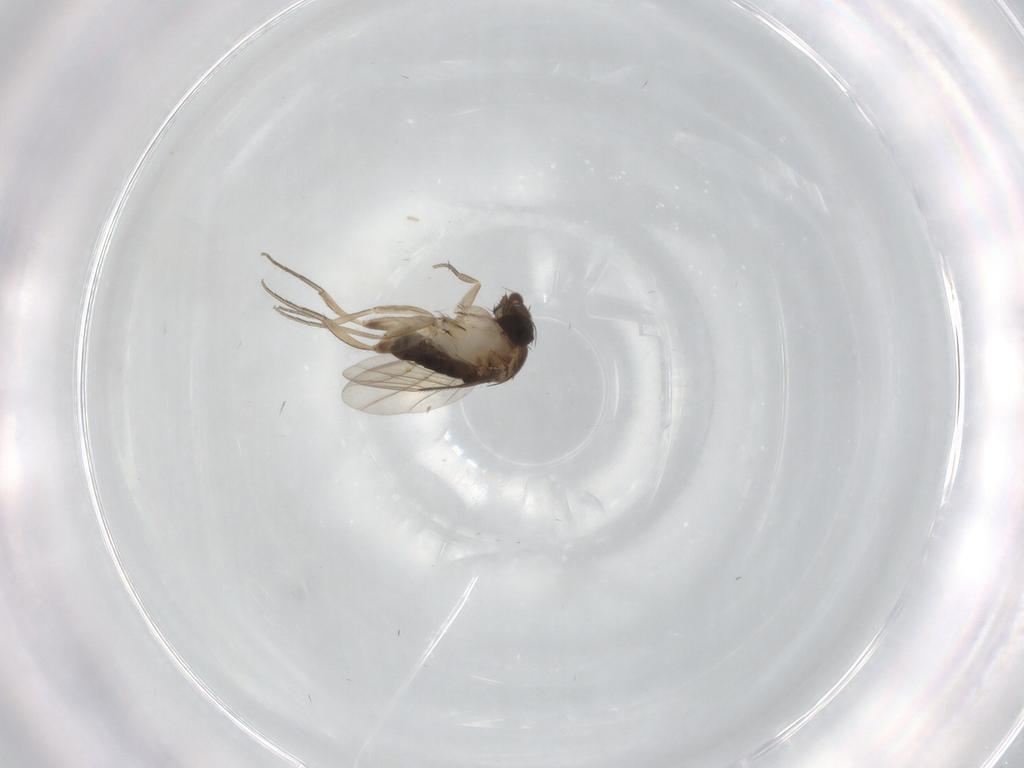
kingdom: Animalia
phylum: Arthropoda
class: Insecta
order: Diptera
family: Phoridae
